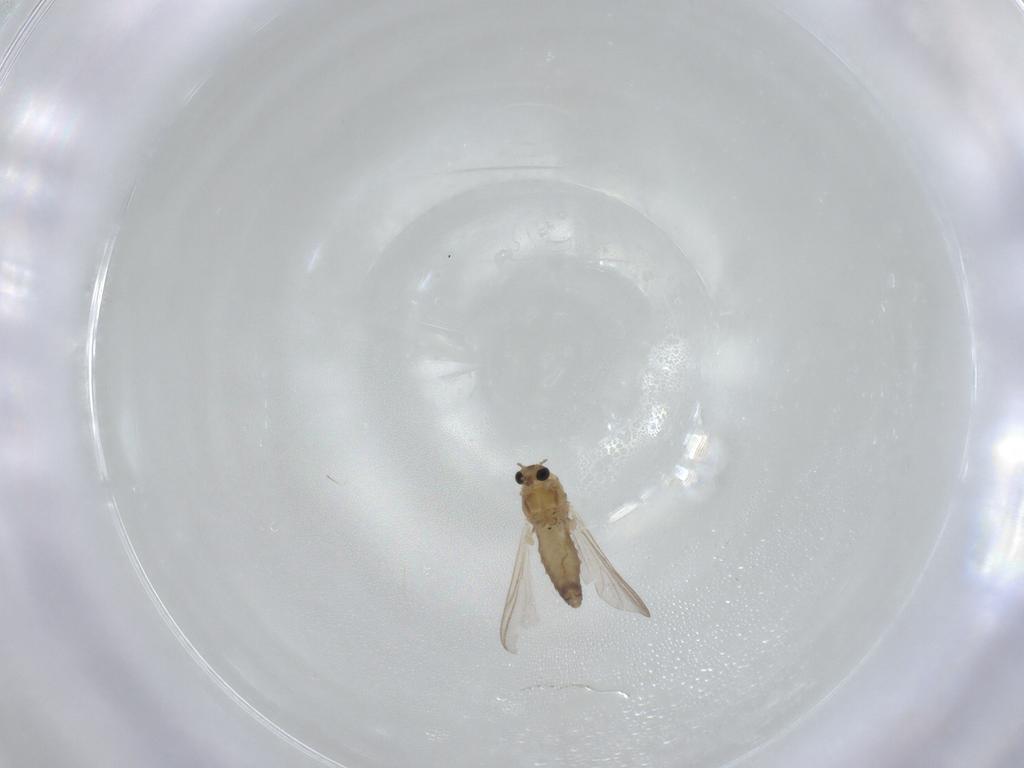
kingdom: Animalia
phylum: Arthropoda
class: Insecta
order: Diptera
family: Chironomidae
